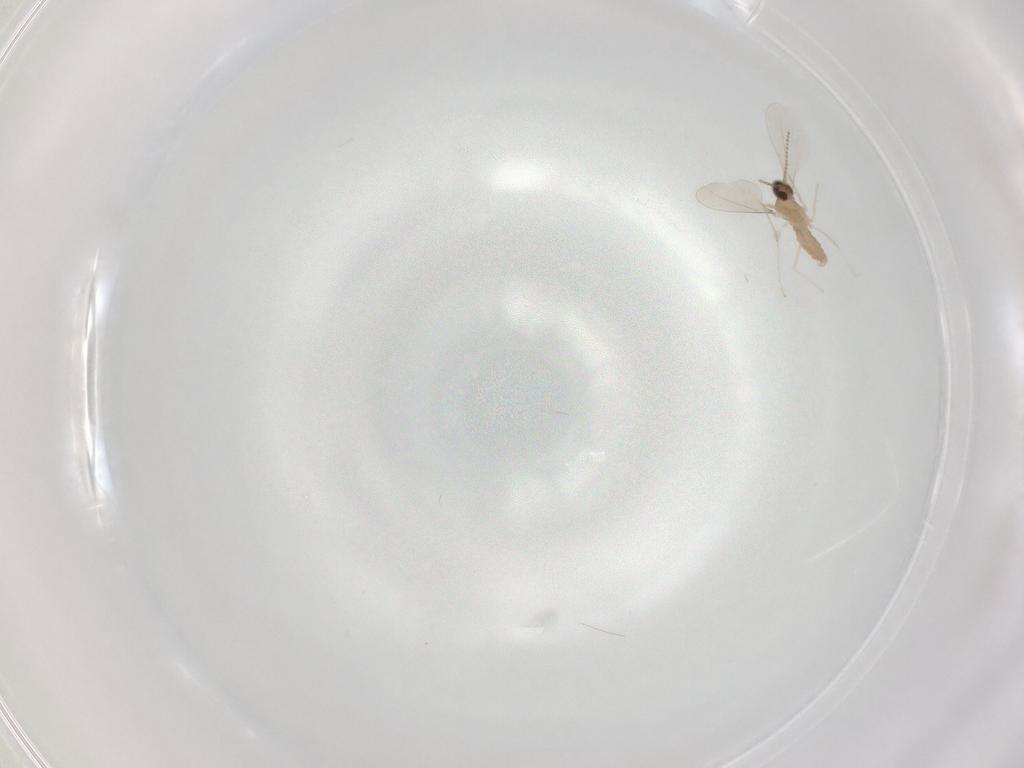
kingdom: Animalia
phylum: Arthropoda
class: Insecta
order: Diptera
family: Cecidomyiidae
